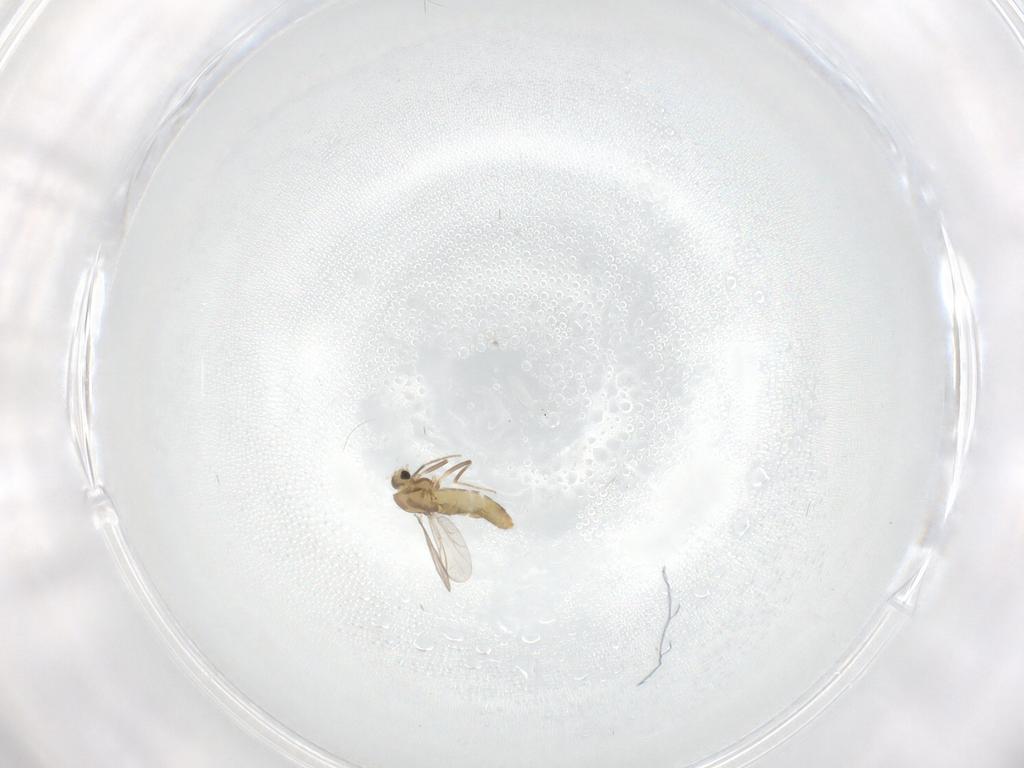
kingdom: Animalia
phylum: Arthropoda
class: Insecta
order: Diptera
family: Chironomidae
